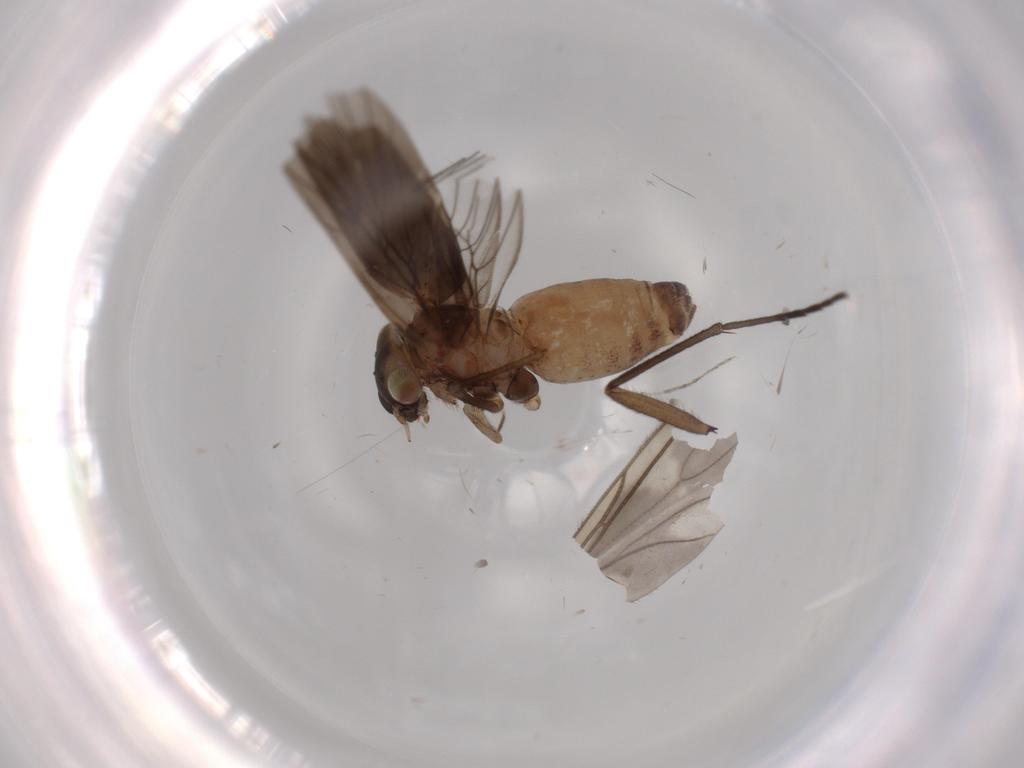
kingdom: Animalia
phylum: Arthropoda
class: Insecta
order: Psocodea
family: Lepidopsocidae
